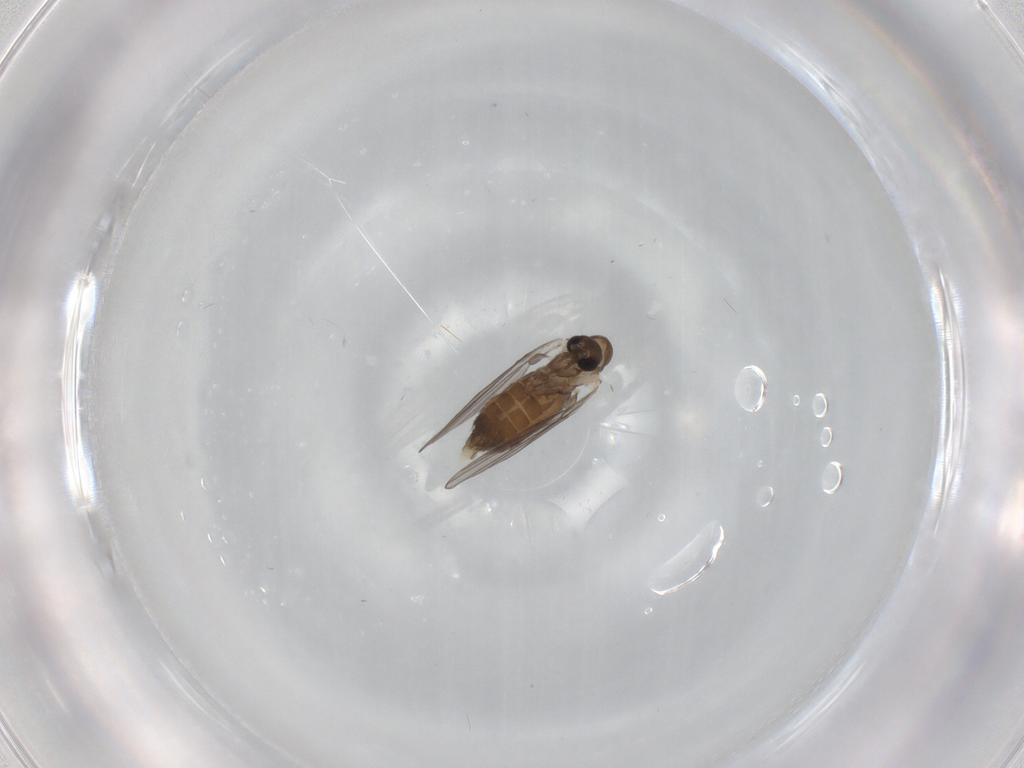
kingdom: Animalia
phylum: Arthropoda
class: Insecta
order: Diptera
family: Psychodidae
